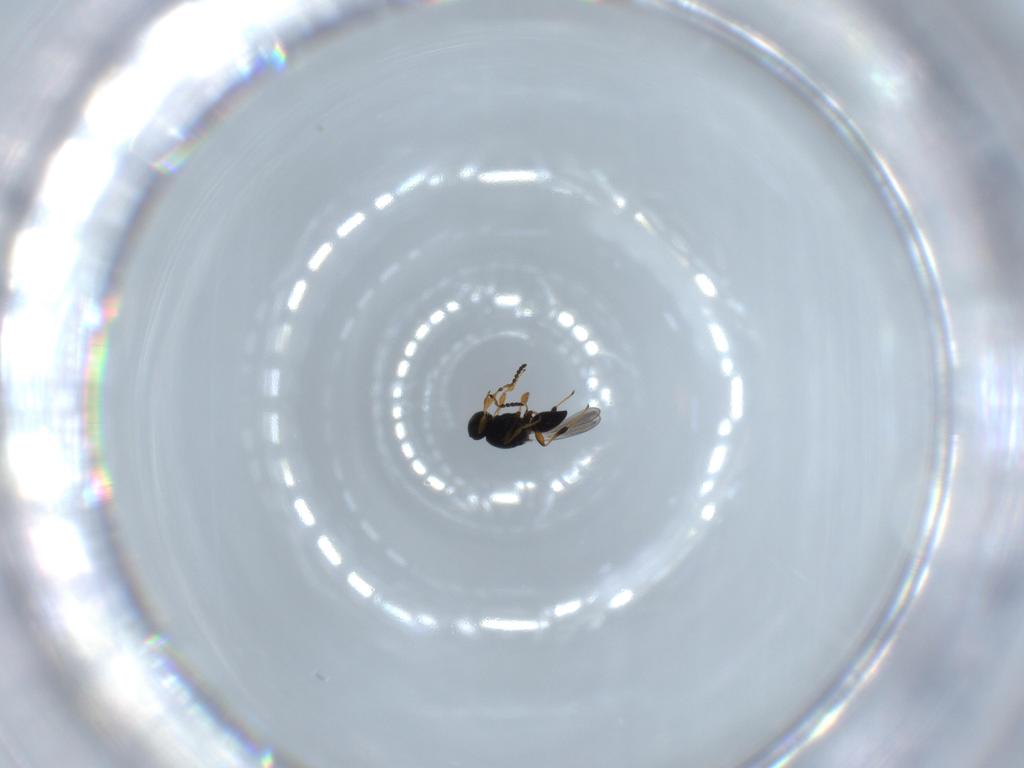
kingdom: Animalia
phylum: Arthropoda
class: Insecta
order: Hymenoptera
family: Platygastridae
